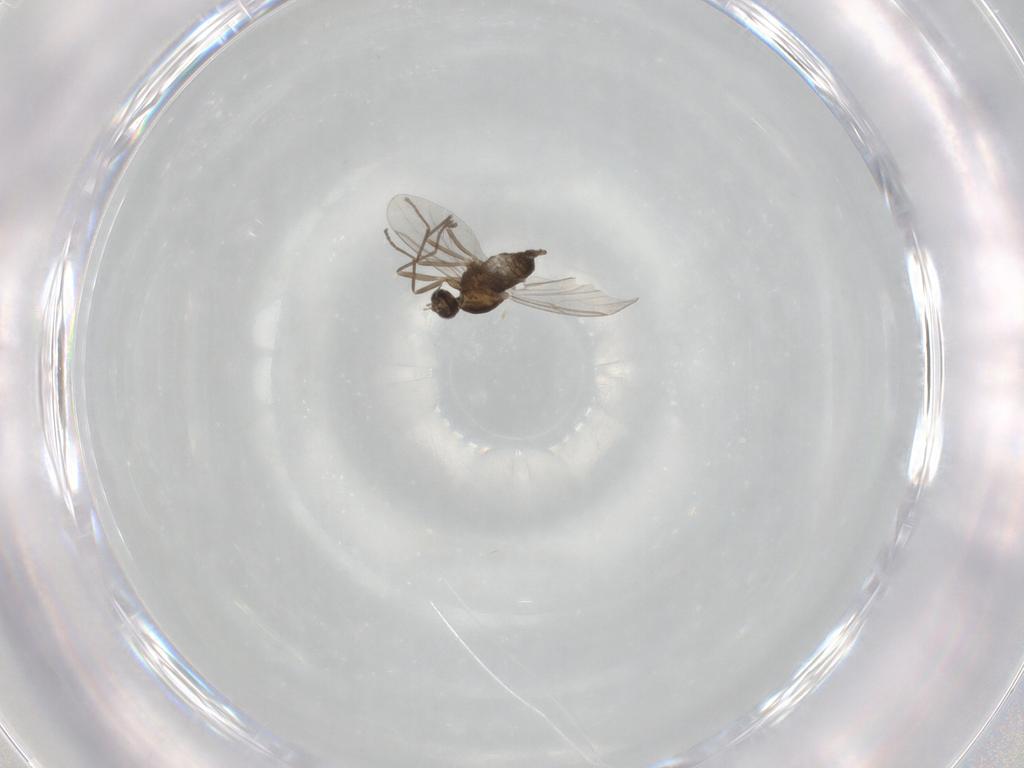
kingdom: Animalia
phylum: Arthropoda
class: Insecta
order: Diptera
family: Cecidomyiidae
